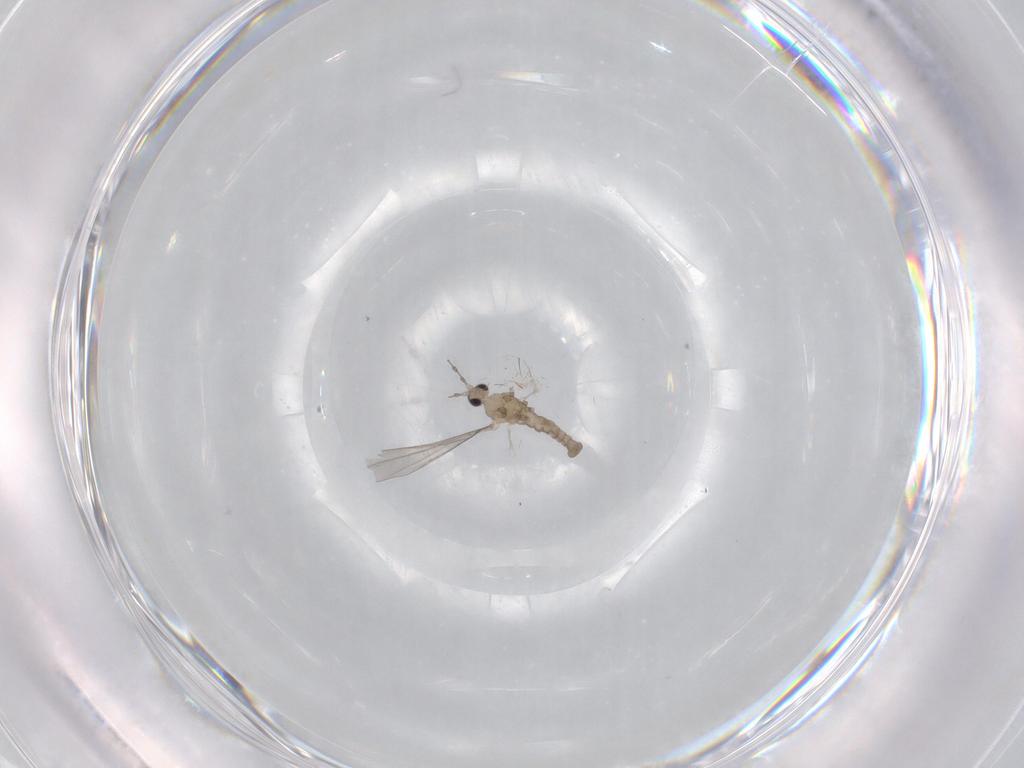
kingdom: Animalia
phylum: Arthropoda
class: Insecta
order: Diptera
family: Cecidomyiidae
